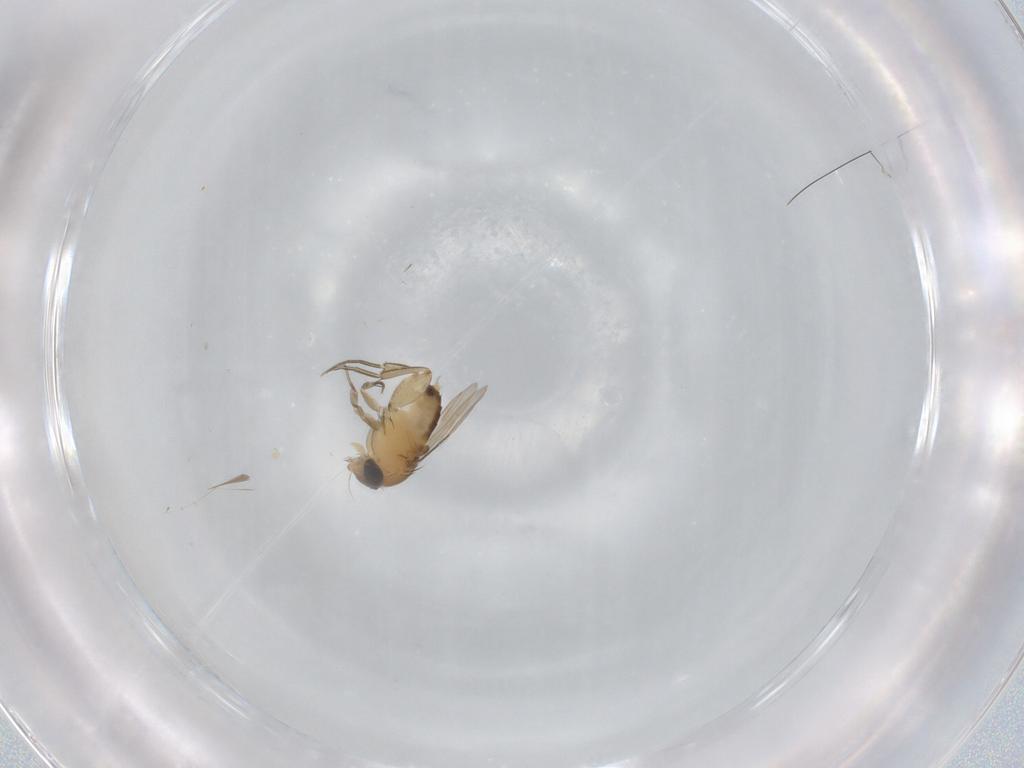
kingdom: Animalia
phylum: Arthropoda
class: Insecta
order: Diptera
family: Phoridae
